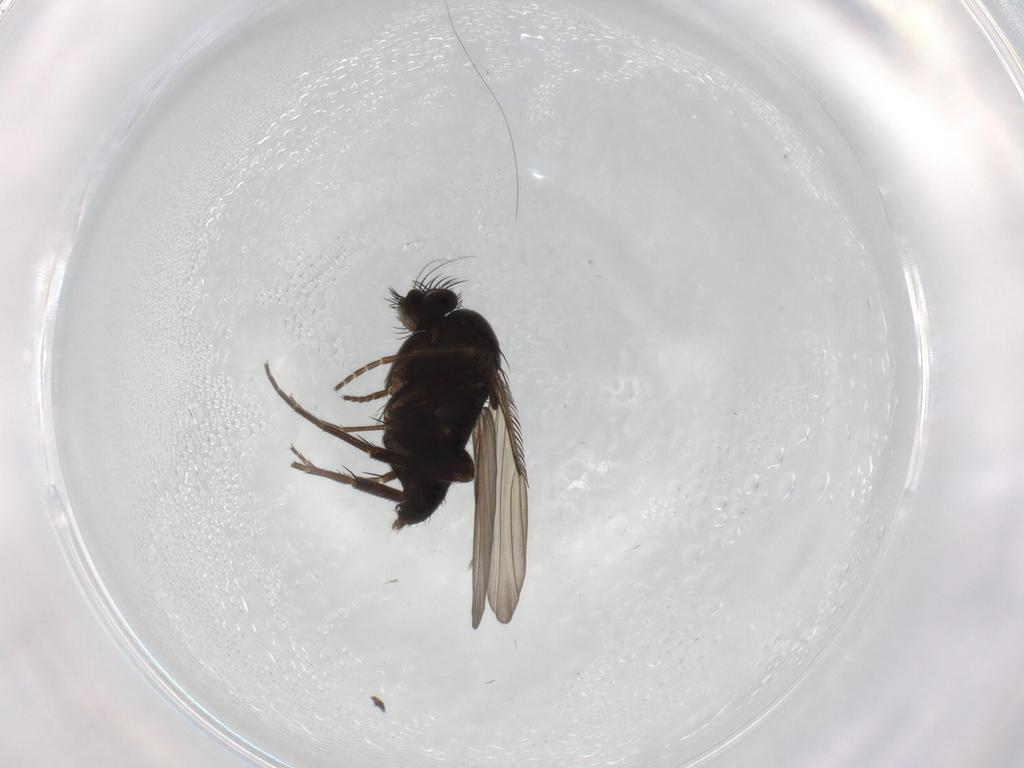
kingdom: Animalia
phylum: Arthropoda
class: Insecta
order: Diptera
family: Phoridae
